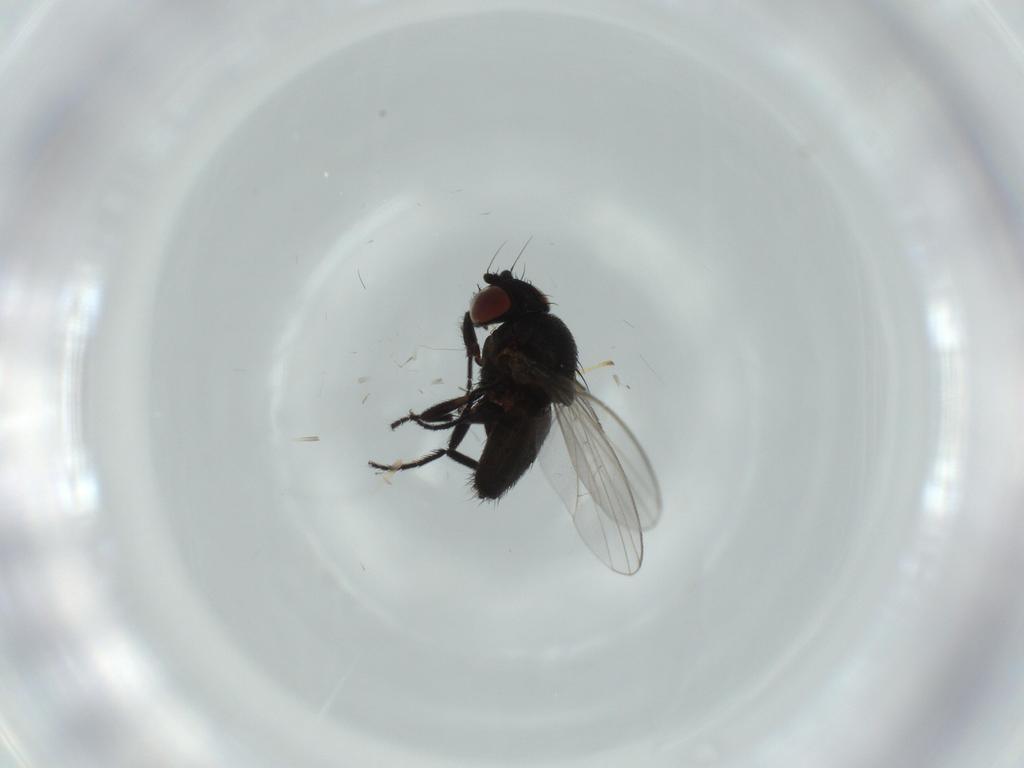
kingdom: Animalia
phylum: Arthropoda
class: Insecta
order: Diptera
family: Milichiidae
